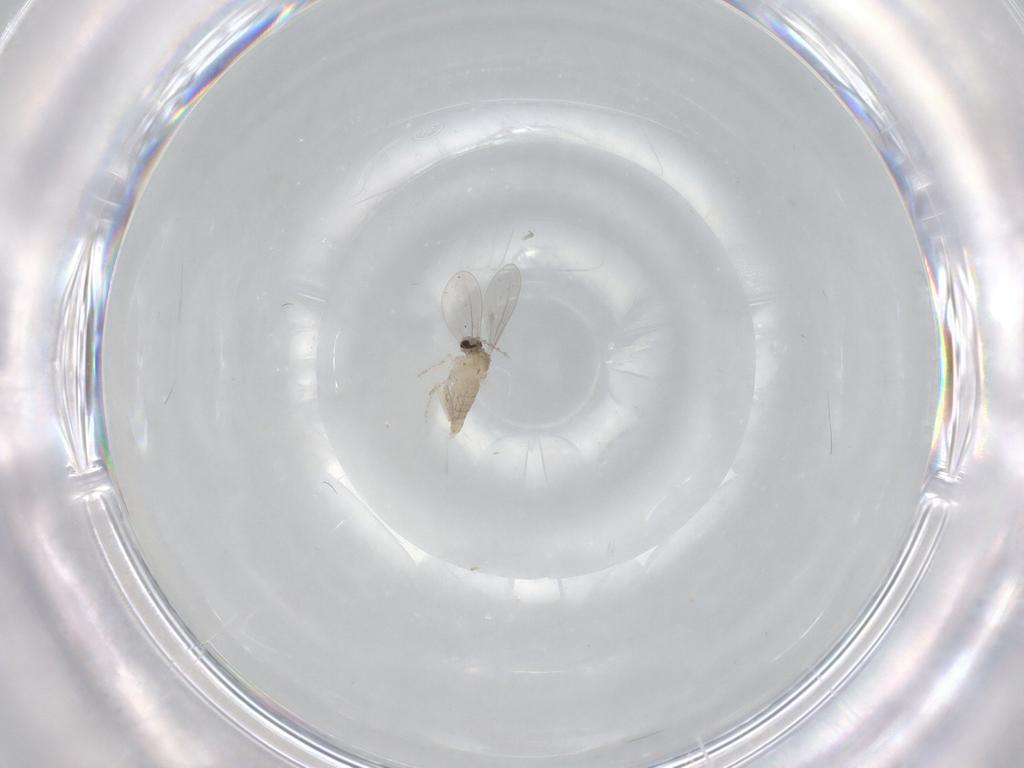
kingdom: Animalia
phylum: Arthropoda
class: Insecta
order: Diptera
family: Cecidomyiidae
